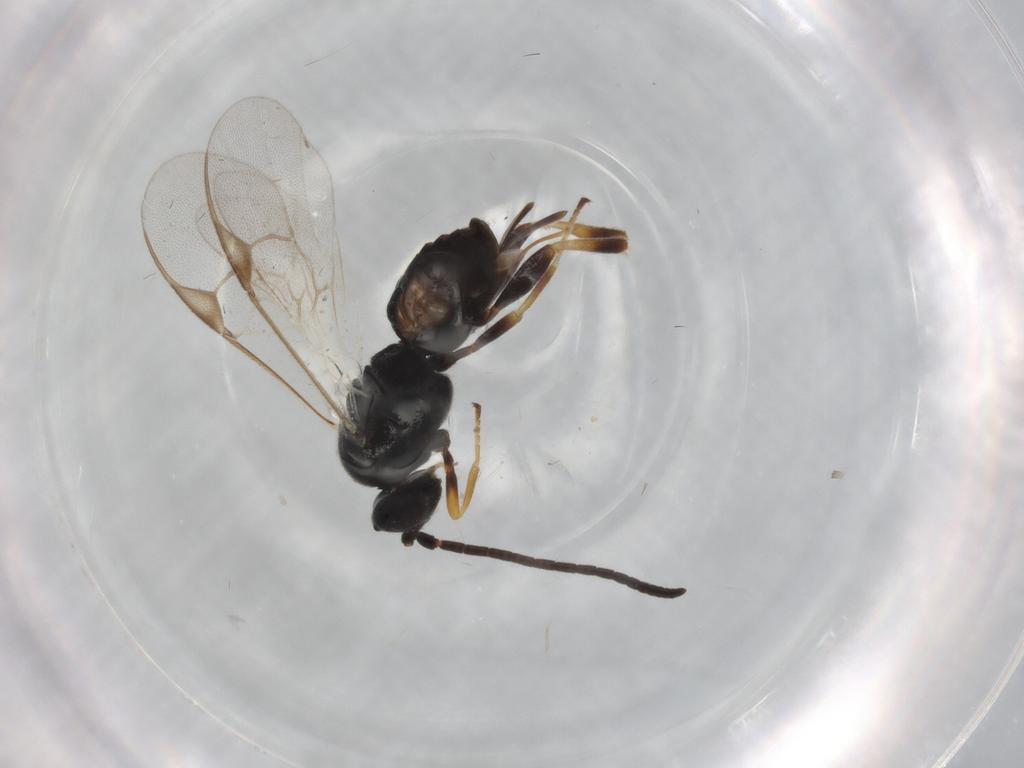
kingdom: Animalia
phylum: Arthropoda
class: Insecta
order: Hymenoptera
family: Braconidae
